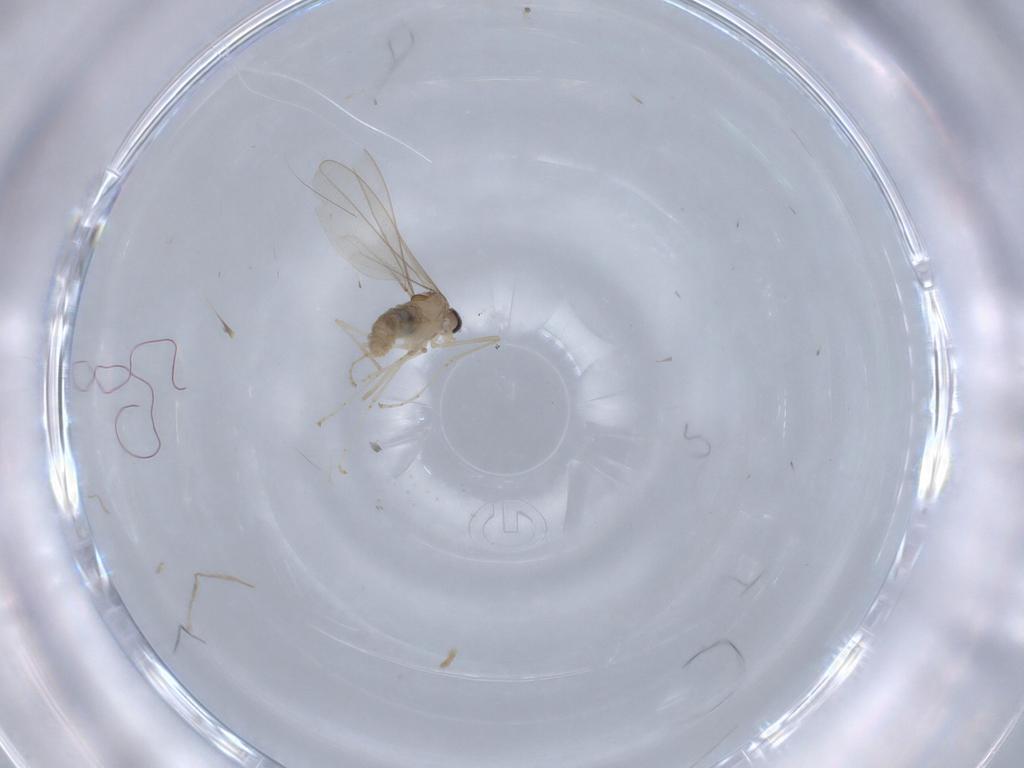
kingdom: Animalia
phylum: Arthropoda
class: Insecta
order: Diptera
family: Cecidomyiidae
